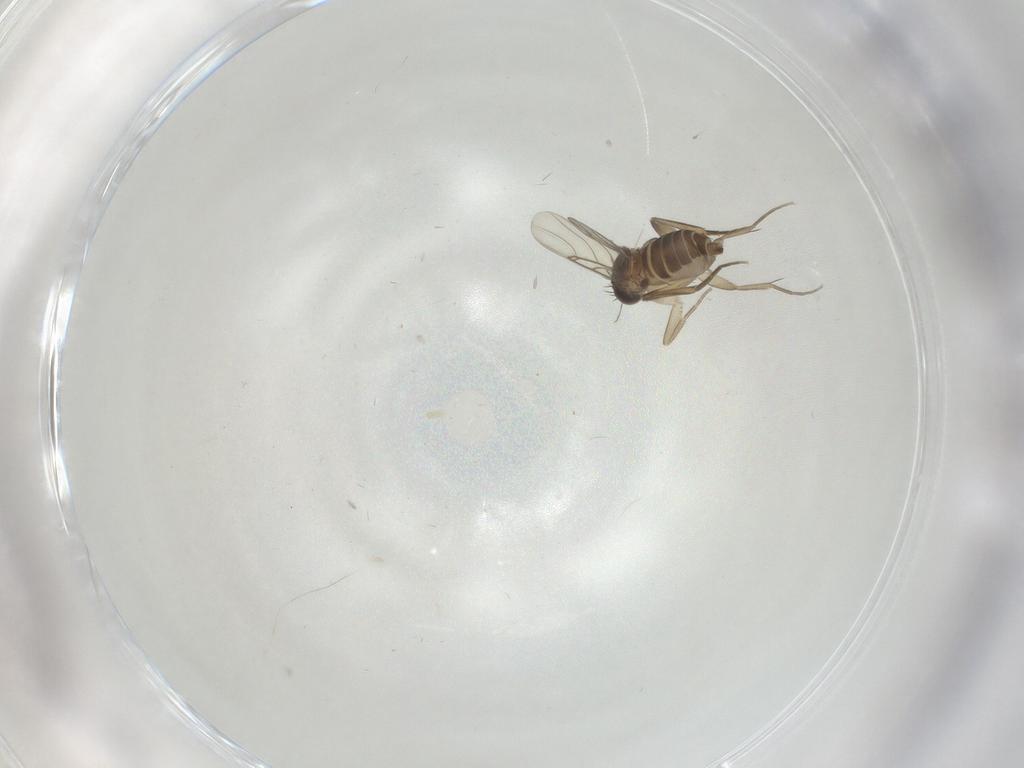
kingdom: Animalia
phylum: Arthropoda
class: Insecta
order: Diptera
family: Phoridae
